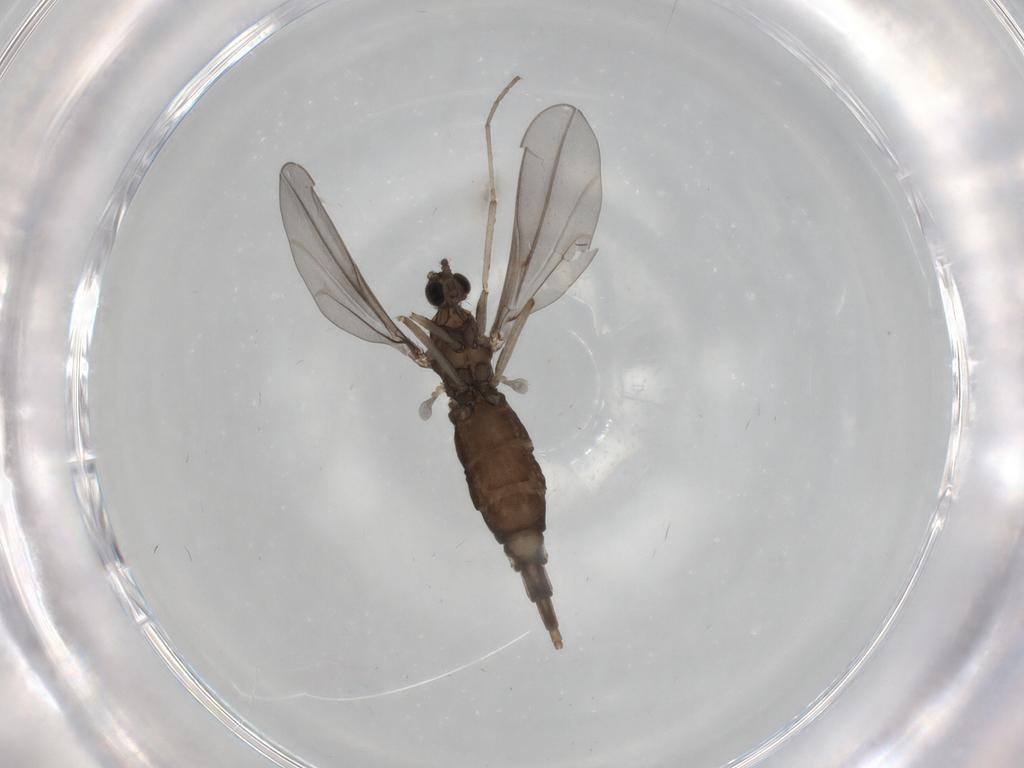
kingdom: Animalia
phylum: Arthropoda
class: Insecta
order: Diptera
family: Cecidomyiidae
